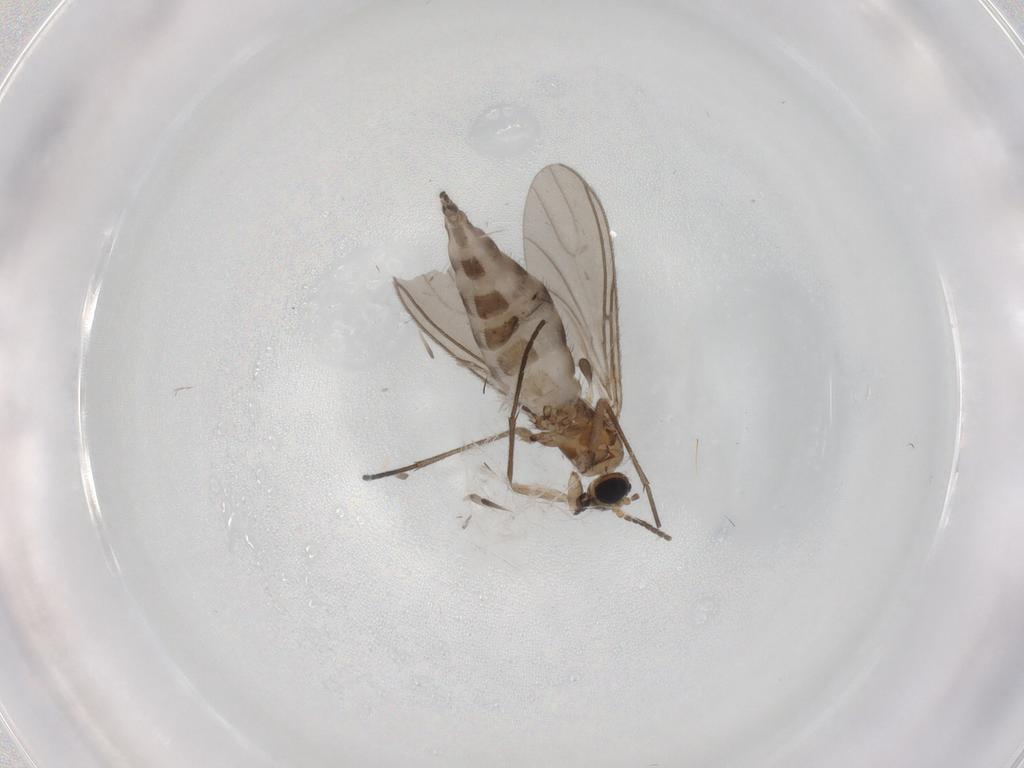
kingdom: Animalia
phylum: Arthropoda
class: Insecta
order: Diptera
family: Sciaridae
